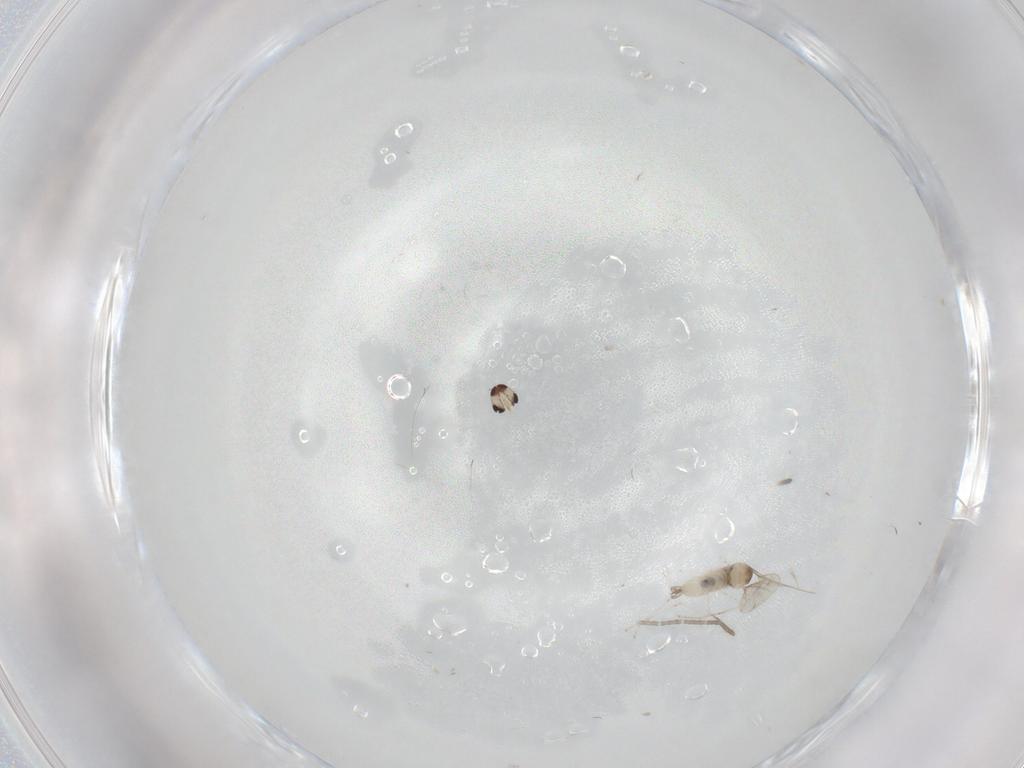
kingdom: Animalia
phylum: Arthropoda
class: Insecta
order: Diptera
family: Cecidomyiidae
